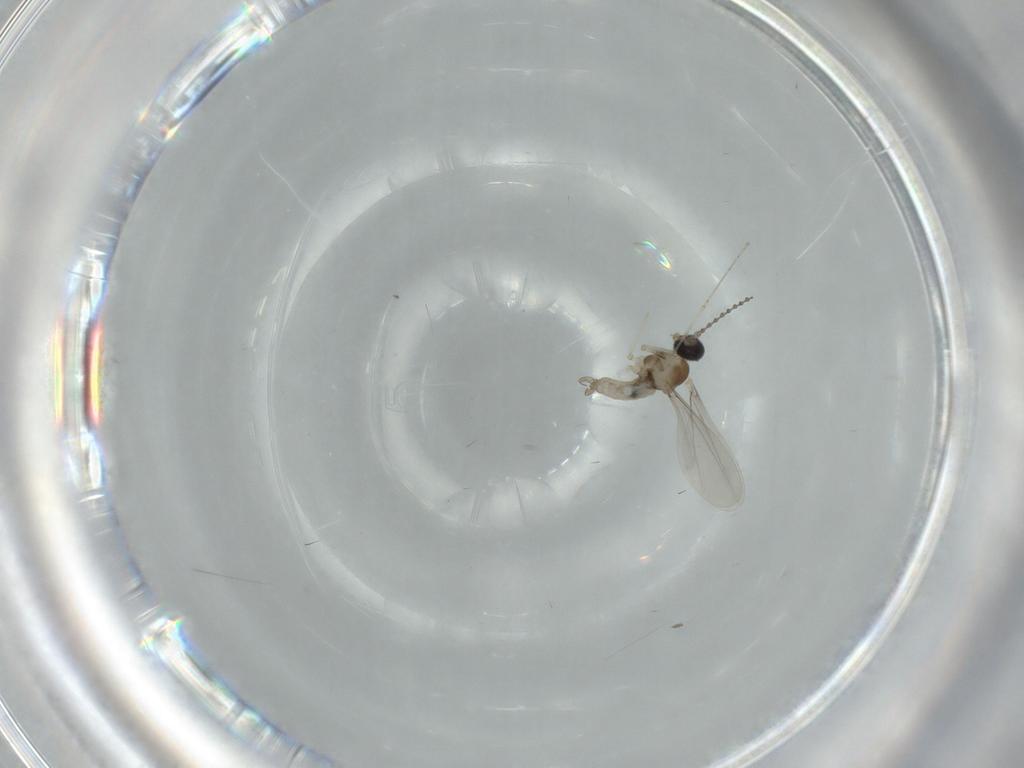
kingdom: Animalia
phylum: Arthropoda
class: Insecta
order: Diptera
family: Cecidomyiidae
